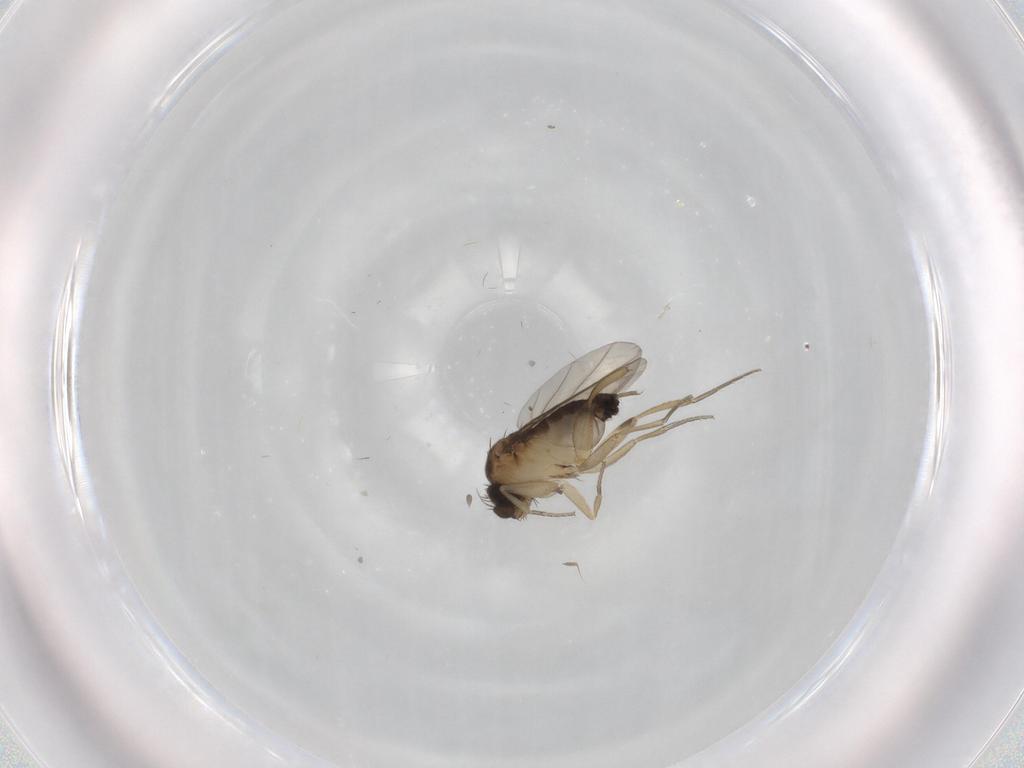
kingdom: Animalia
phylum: Arthropoda
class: Insecta
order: Diptera
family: Chironomidae
